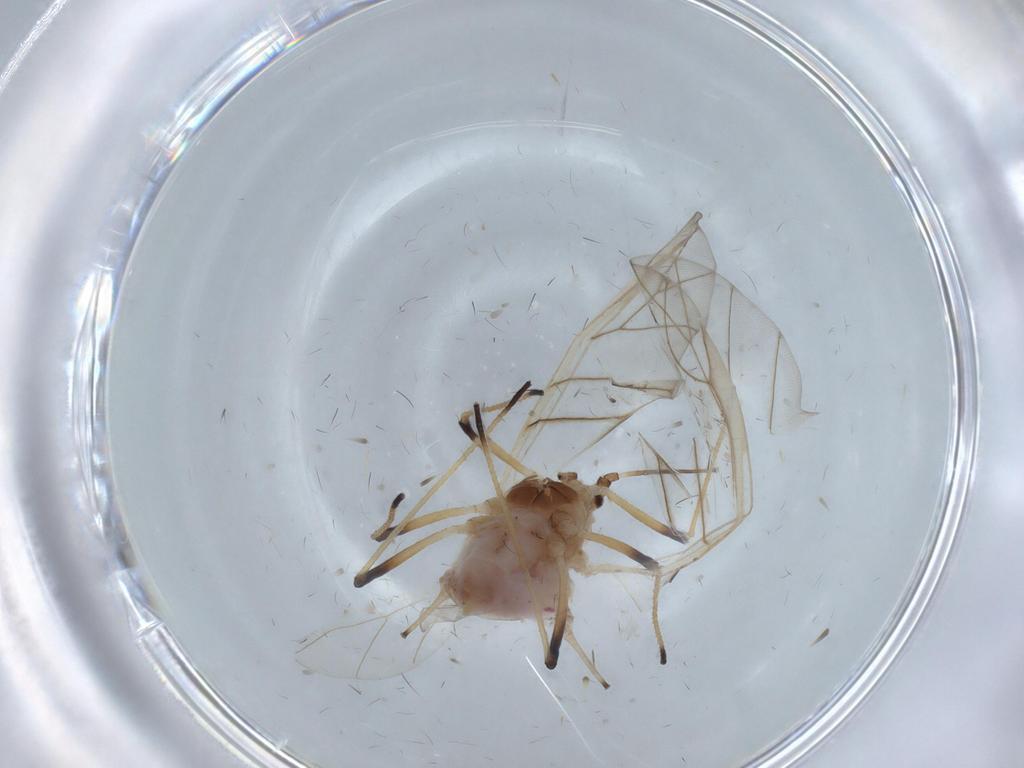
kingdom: Animalia
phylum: Arthropoda
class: Insecta
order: Hemiptera
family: Aphididae
